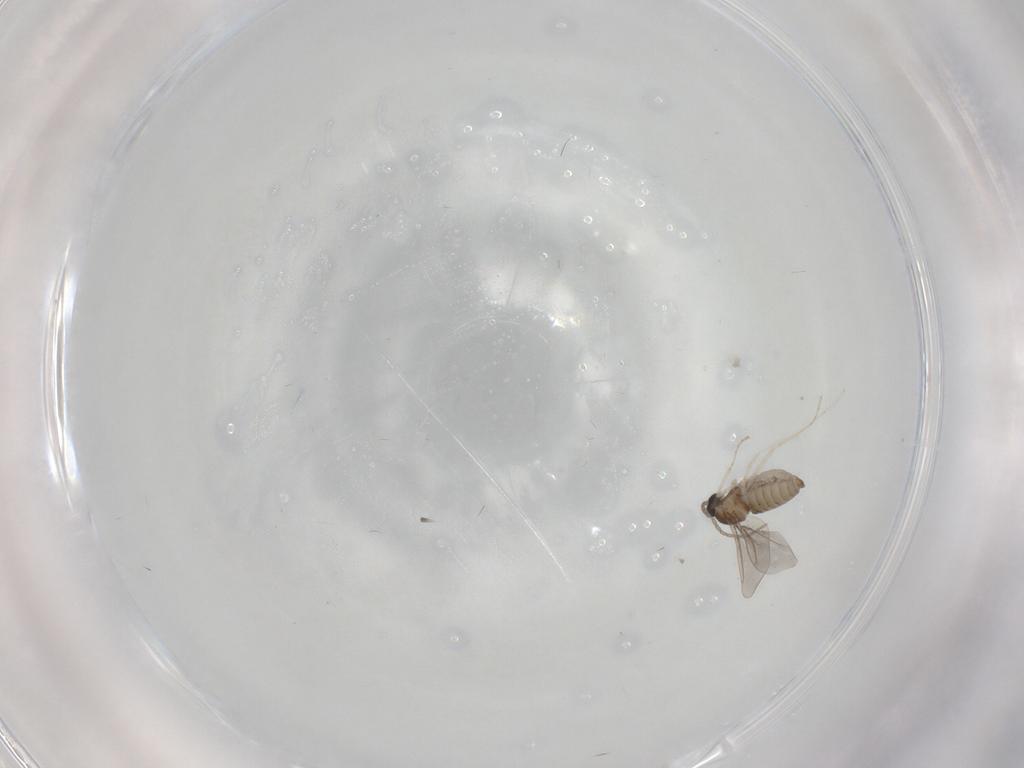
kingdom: Animalia
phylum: Arthropoda
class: Insecta
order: Diptera
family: Cecidomyiidae
